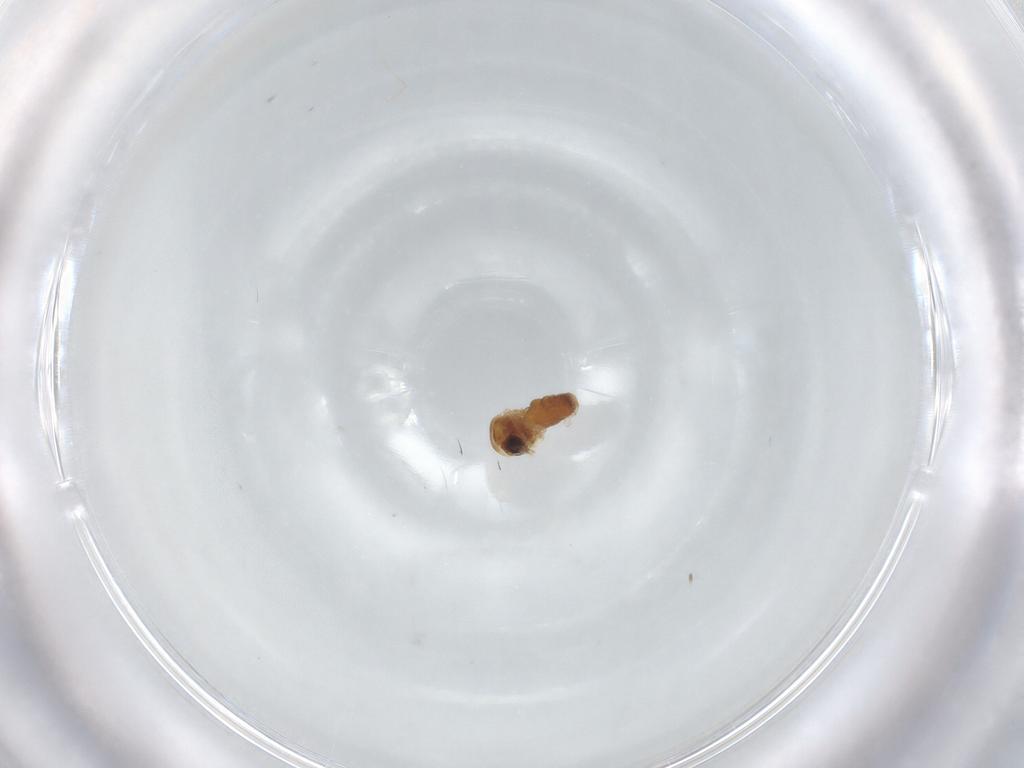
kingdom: Animalia
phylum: Arthropoda
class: Insecta
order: Diptera
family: Cecidomyiidae
